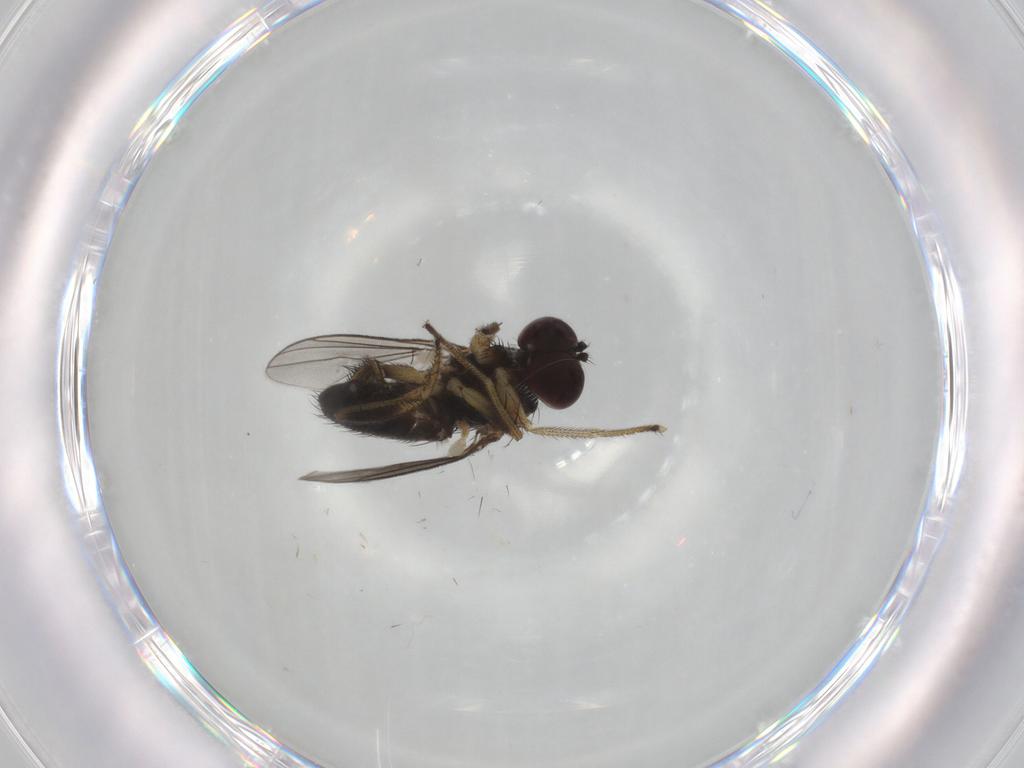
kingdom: Animalia
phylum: Arthropoda
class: Insecta
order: Diptera
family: Dolichopodidae
